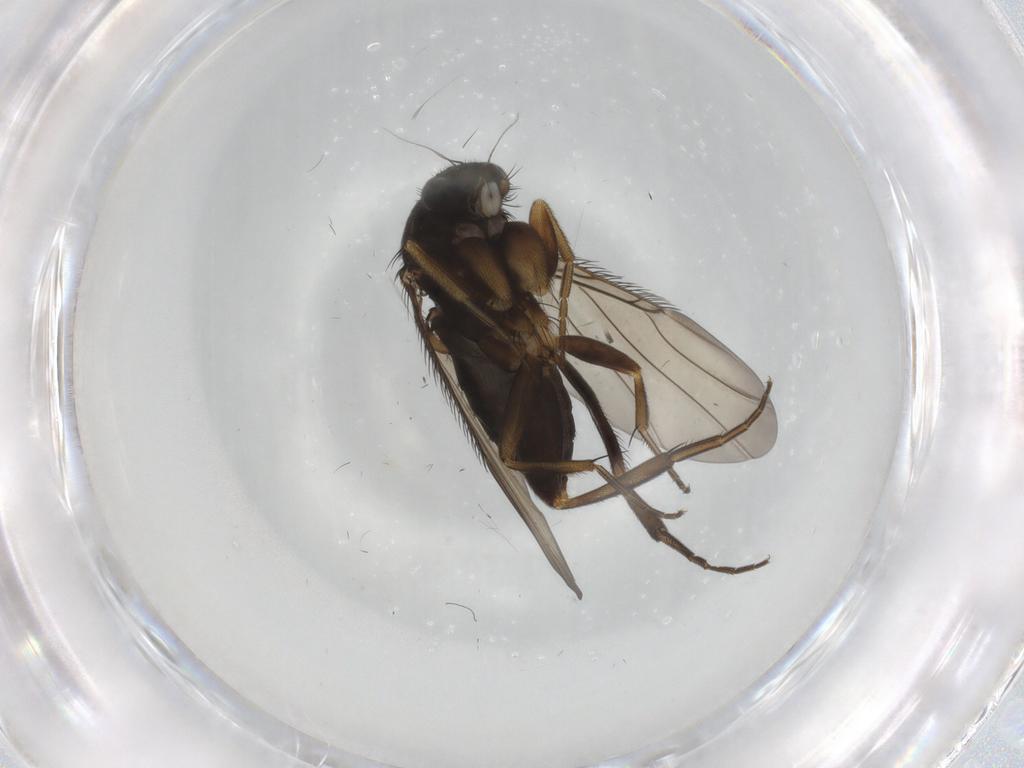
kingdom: Animalia
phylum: Arthropoda
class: Insecta
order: Diptera
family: Phoridae
